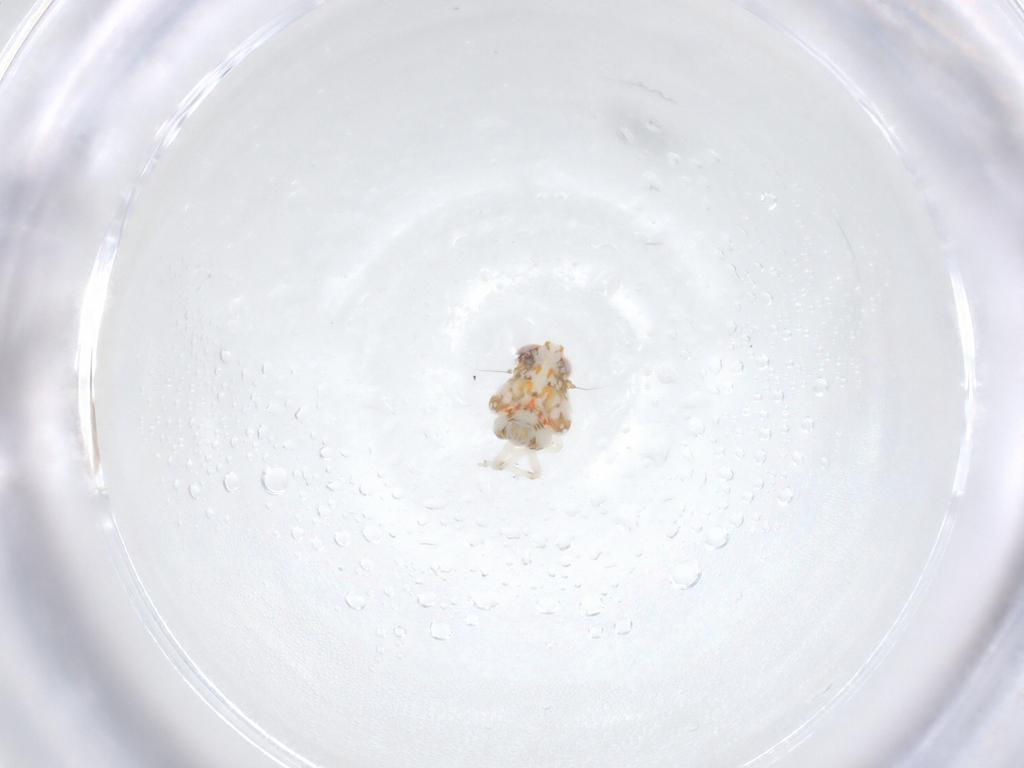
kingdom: Animalia
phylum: Arthropoda
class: Insecta
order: Hemiptera
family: Nogodinidae
